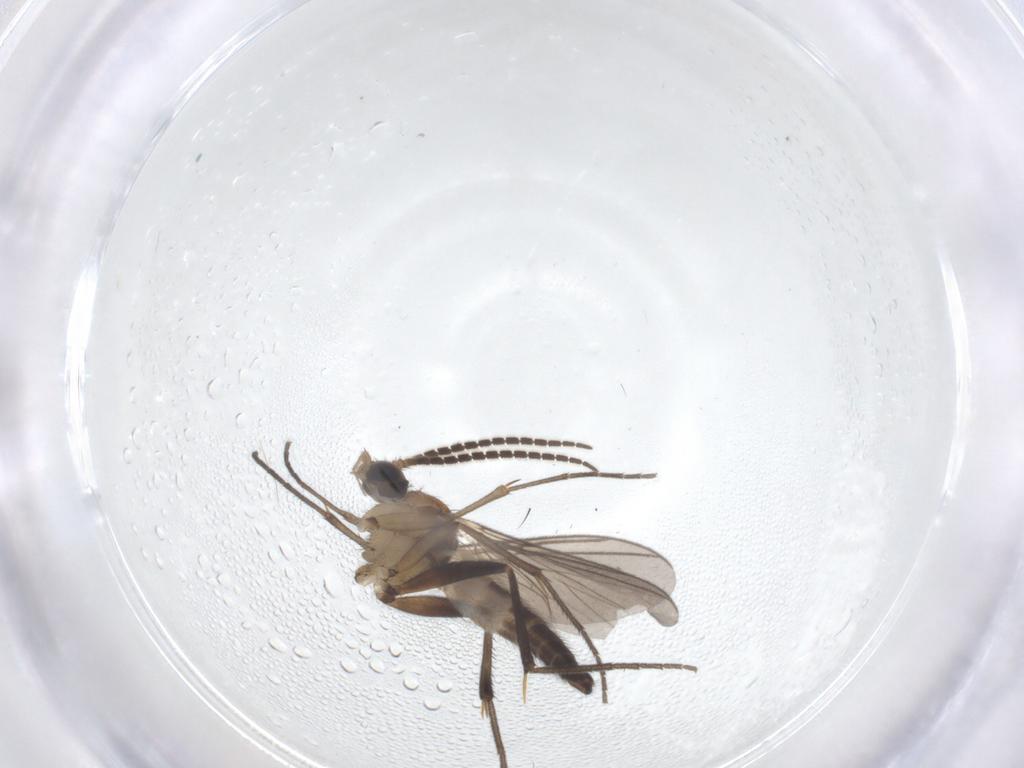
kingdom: Animalia
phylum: Arthropoda
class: Insecta
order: Diptera
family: Mycetophilidae
